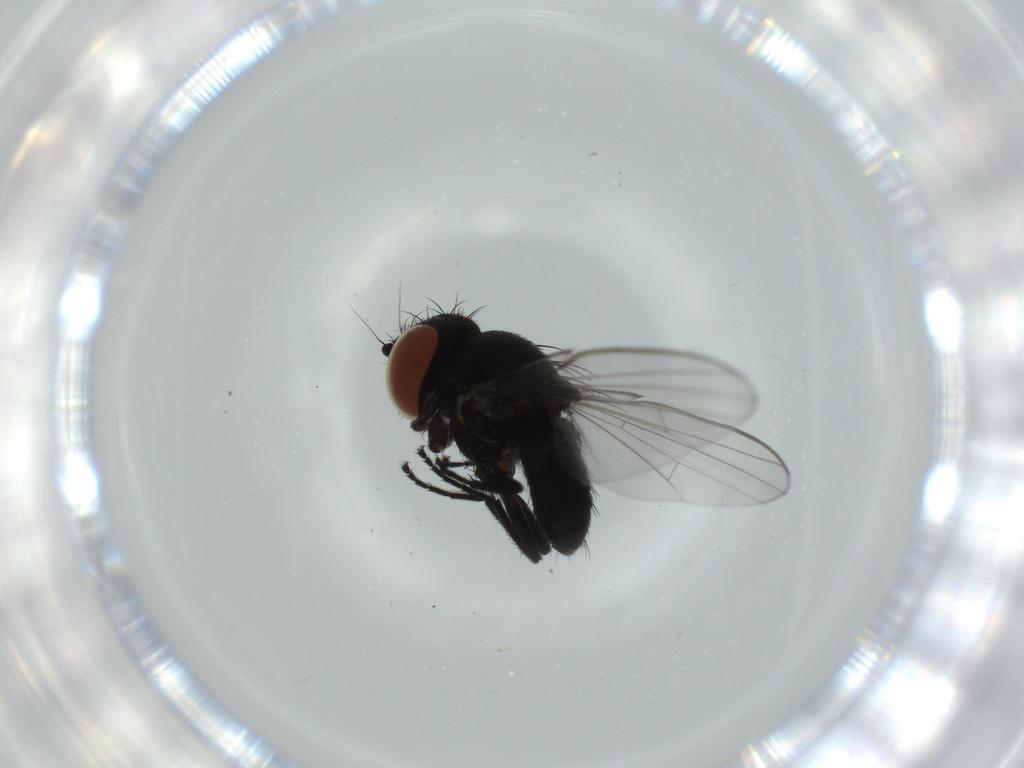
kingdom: Animalia
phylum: Arthropoda
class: Insecta
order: Diptera
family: Milichiidae
